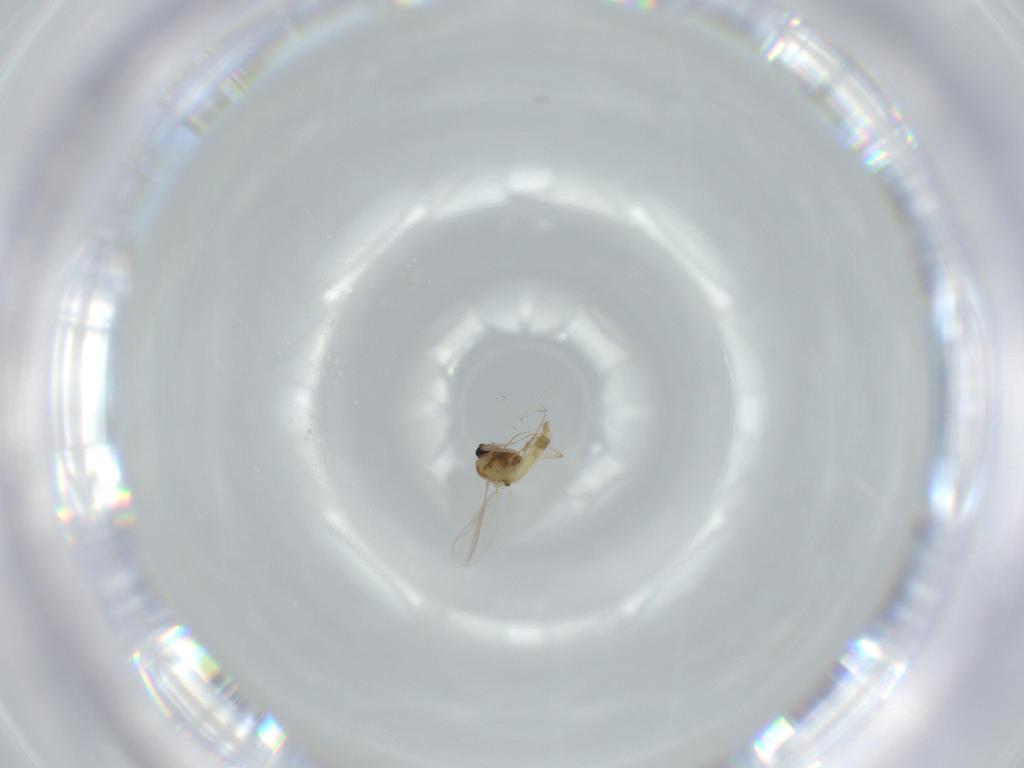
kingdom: Animalia
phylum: Arthropoda
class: Insecta
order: Diptera
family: Chironomidae
